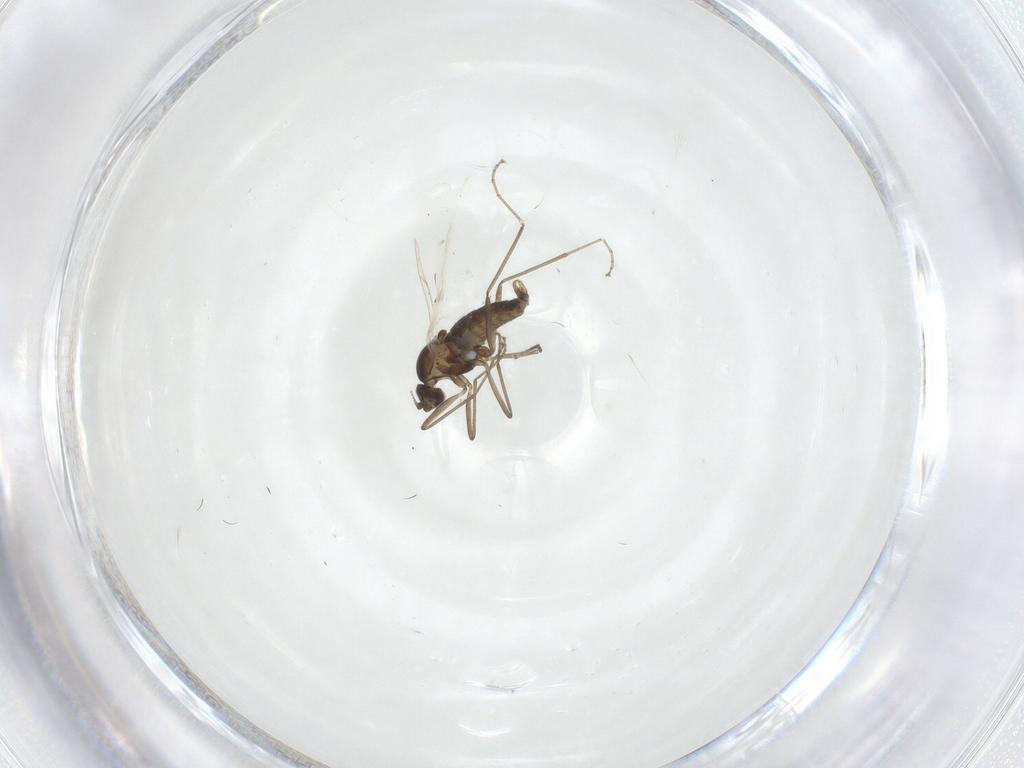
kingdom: Animalia
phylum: Arthropoda
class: Insecta
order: Diptera
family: Cecidomyiidae
